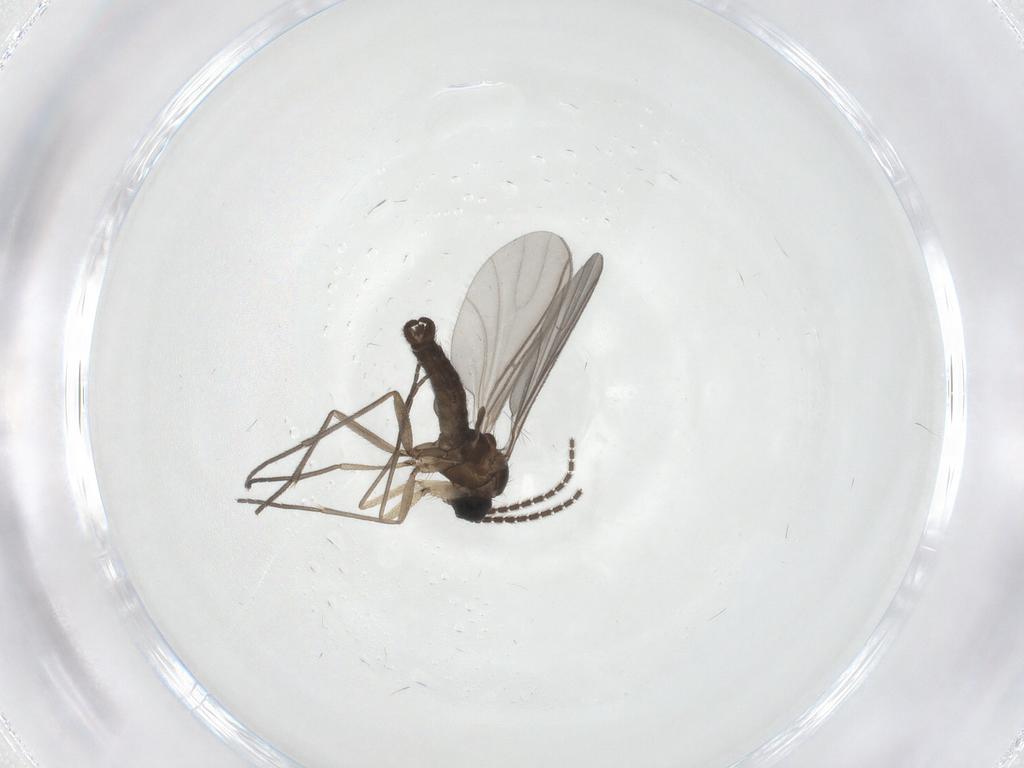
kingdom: Animalia
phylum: Arthropoda
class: Insecta
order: Diptera
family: Sciaridae
